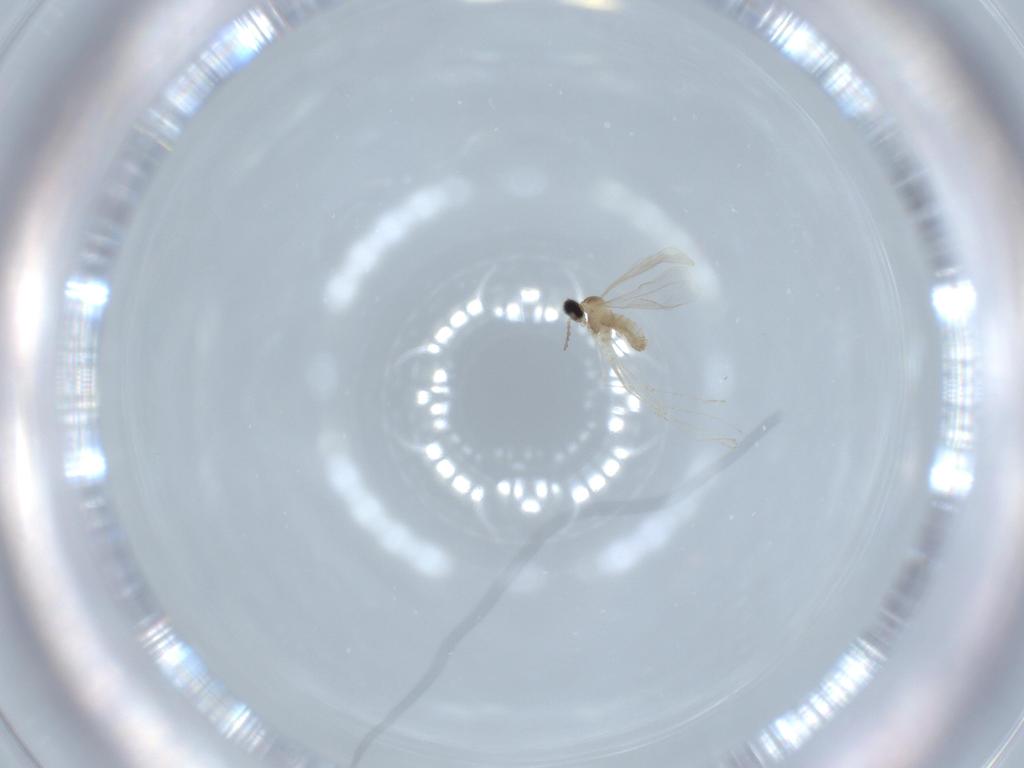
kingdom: Animalia
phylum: Arthropoda
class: Insecta
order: Diptera
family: Cecidomyiidae
